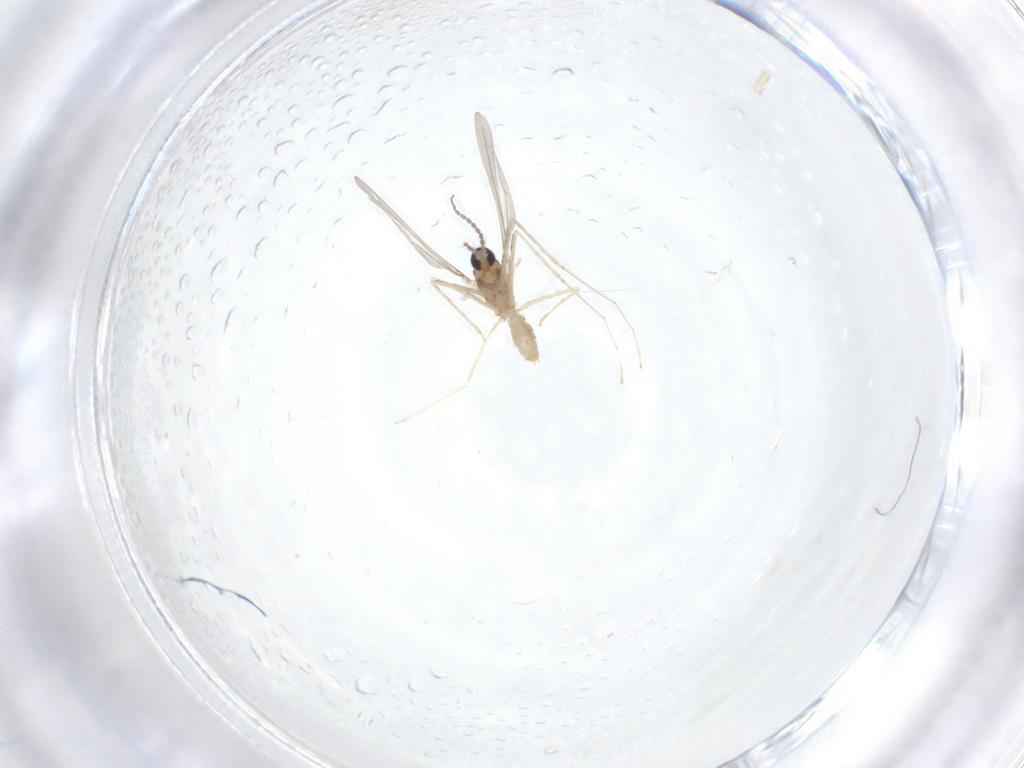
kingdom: Animalia
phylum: Arthropoda
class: Insecta
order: Diptera
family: Cecidomyiidae
